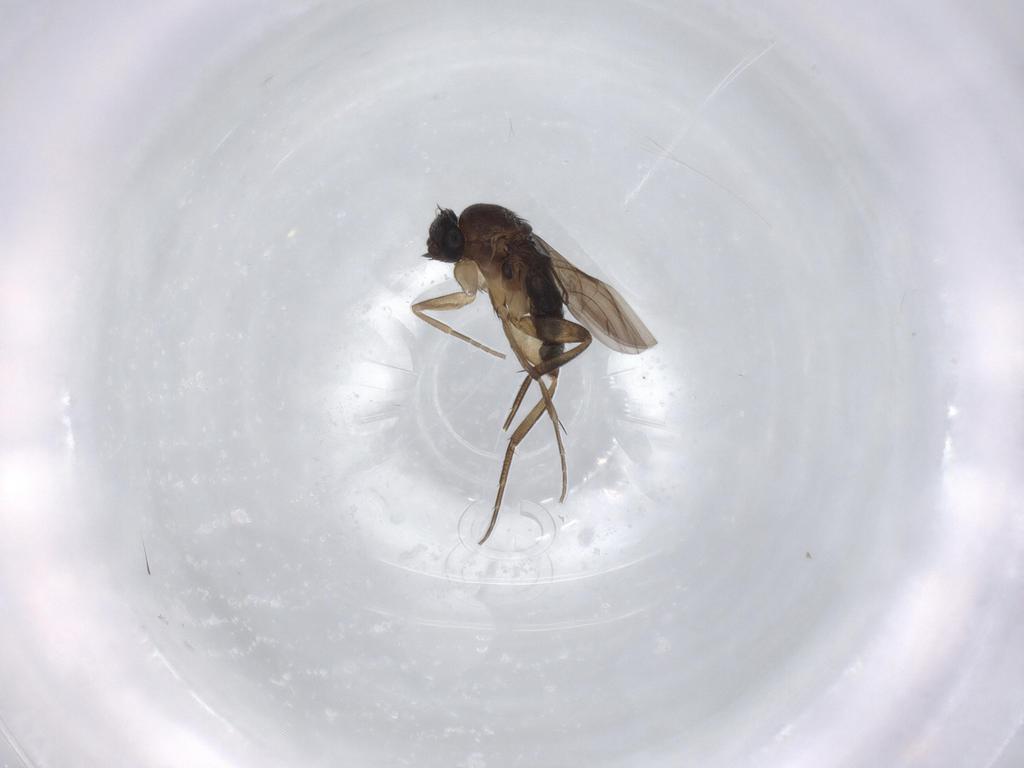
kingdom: Animalia
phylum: Arthropoda
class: Insecta
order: Diptera
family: Phoridae
